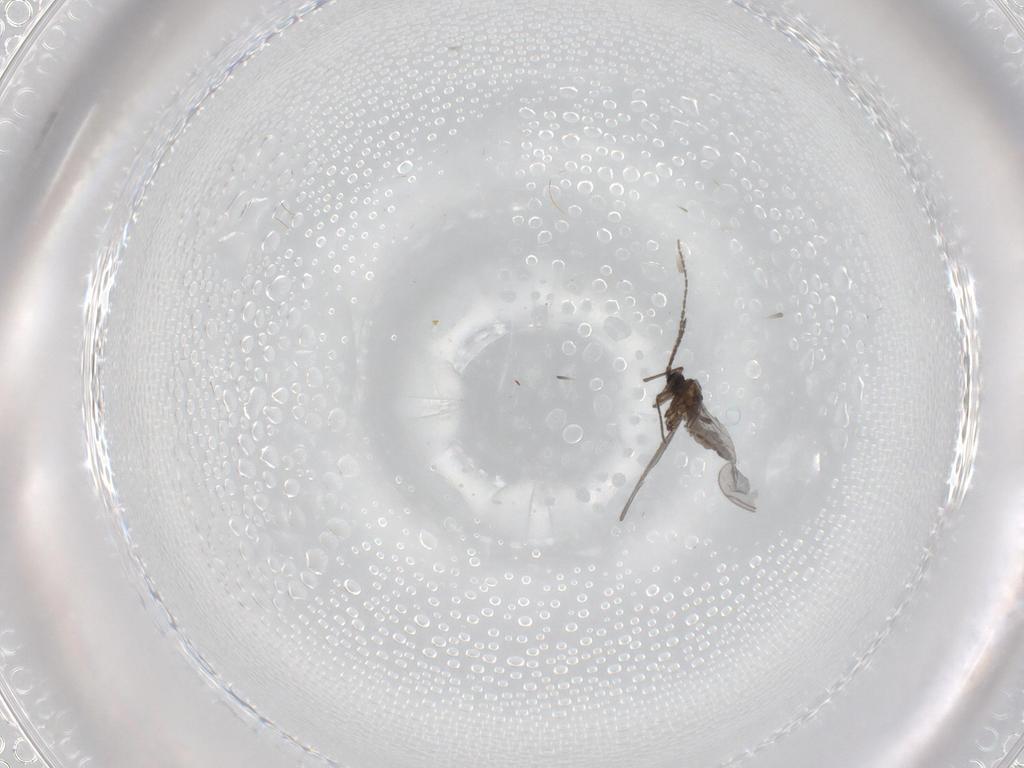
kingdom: Animalia
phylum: Arthropoda
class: Insecta
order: Diptera
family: Sciaridae
